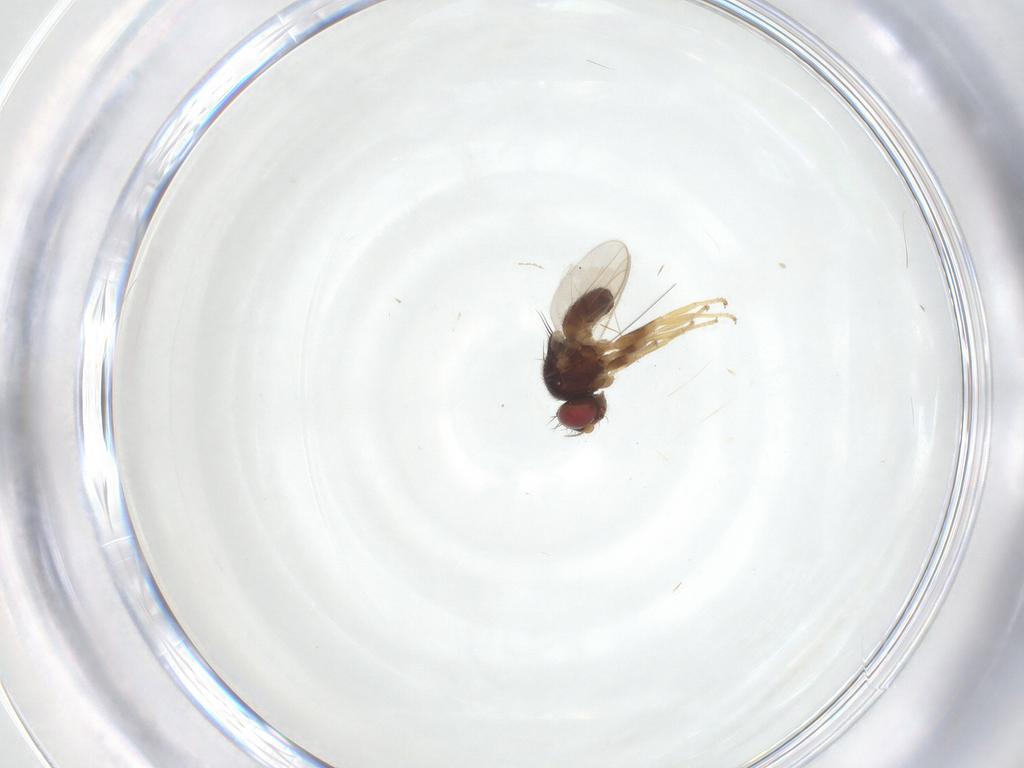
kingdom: Animalia
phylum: Arthropoda
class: Insecta
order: Diptera
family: Chloropidae
